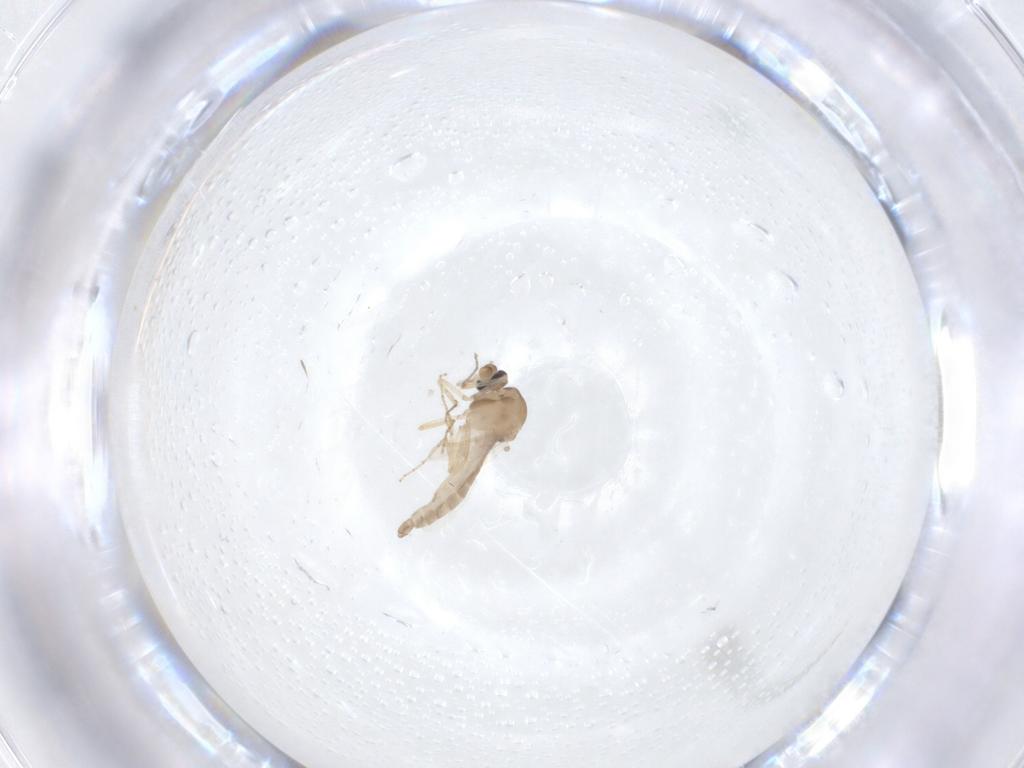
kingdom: Animalia
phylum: Arthropoda
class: Insecta
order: Diptera
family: Ceratopogonidae
